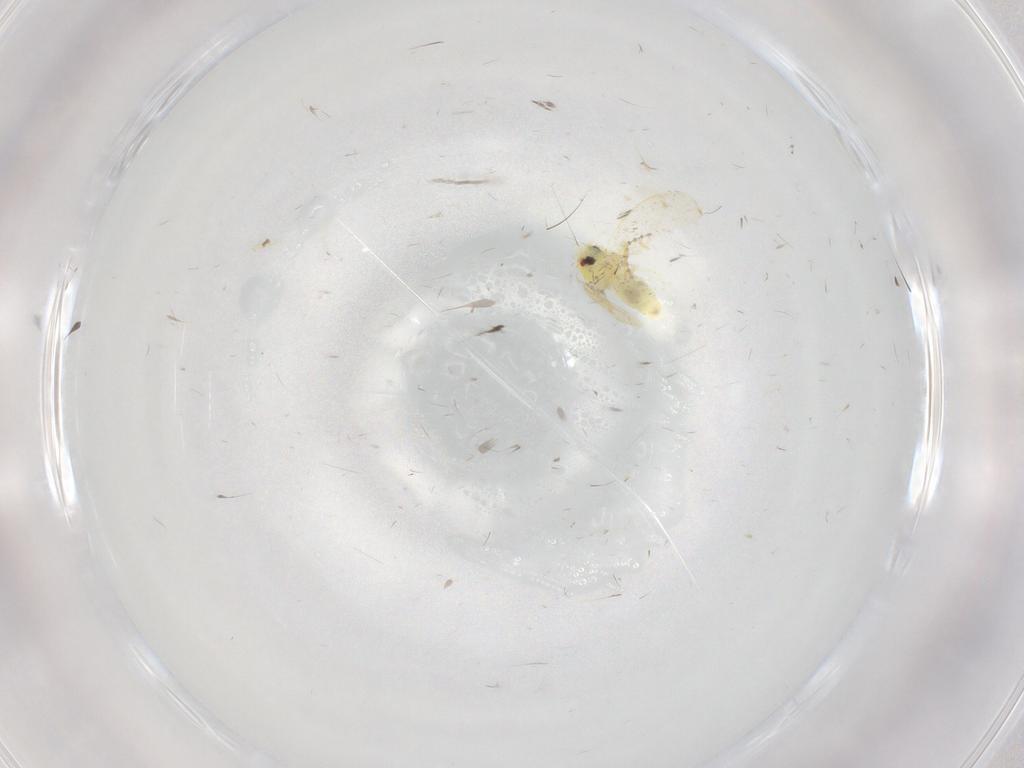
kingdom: Animalia
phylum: Arthropoda
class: Insecta
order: Hemiptera
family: Aleyrodidae
